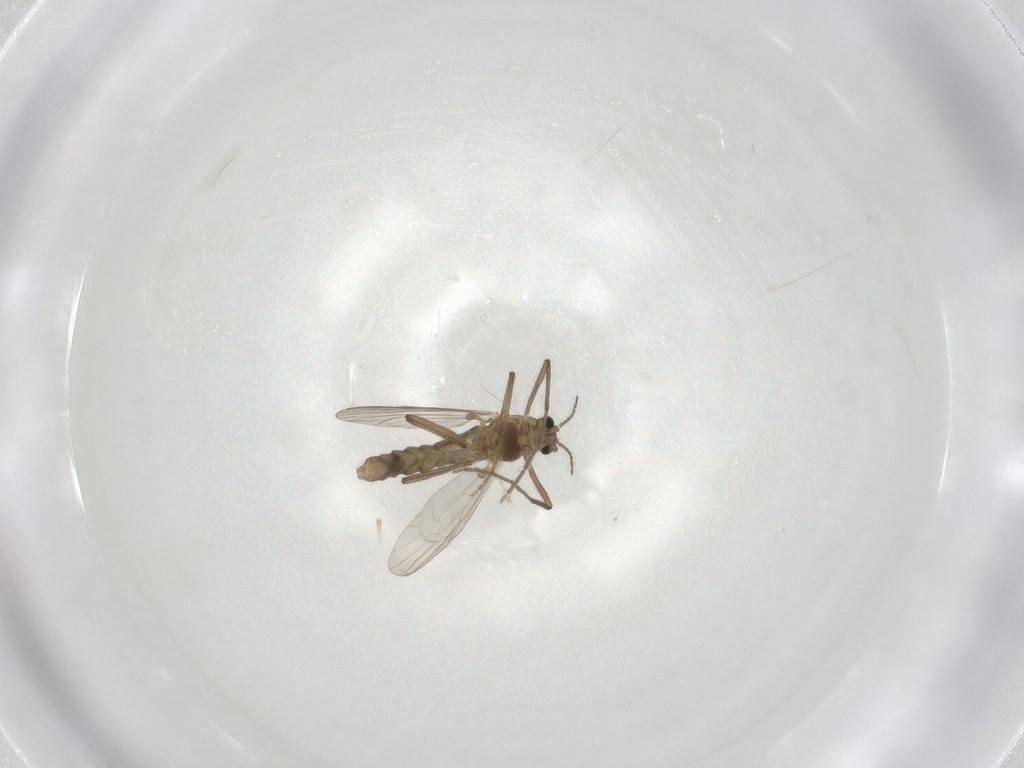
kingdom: Animalia
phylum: Arthropoda
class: Insecta
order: Diptera
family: Chironomidae
